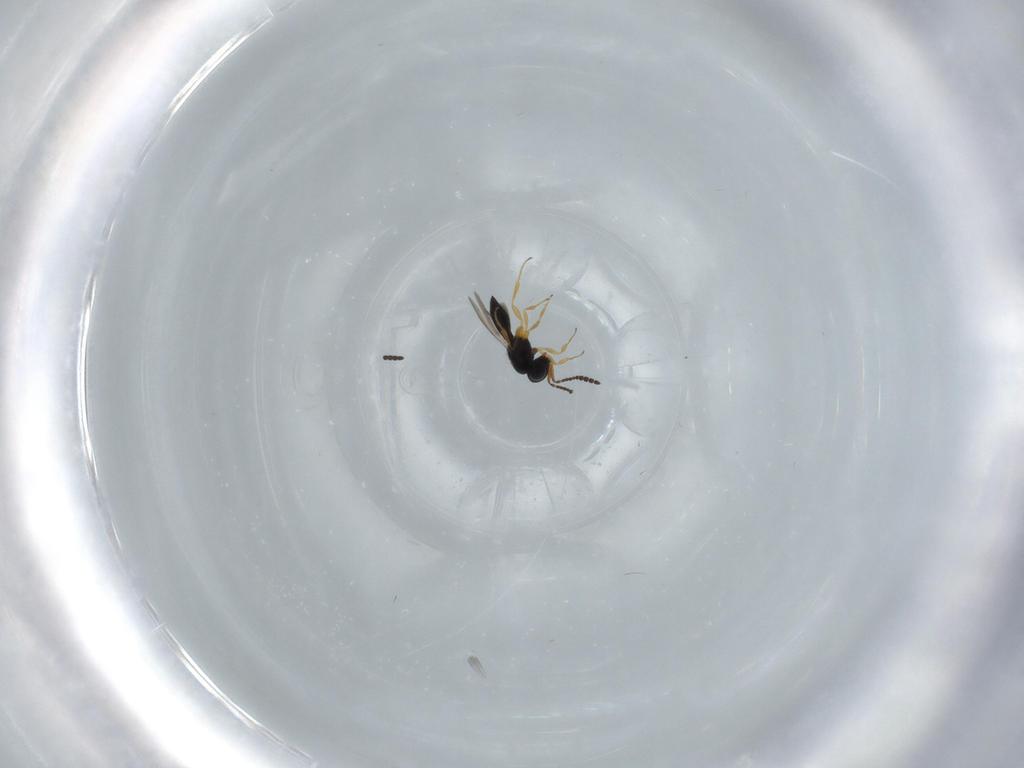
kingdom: Animalia
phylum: Arthropoda
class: Insecta
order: Hymenoptera
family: Scelionidae
